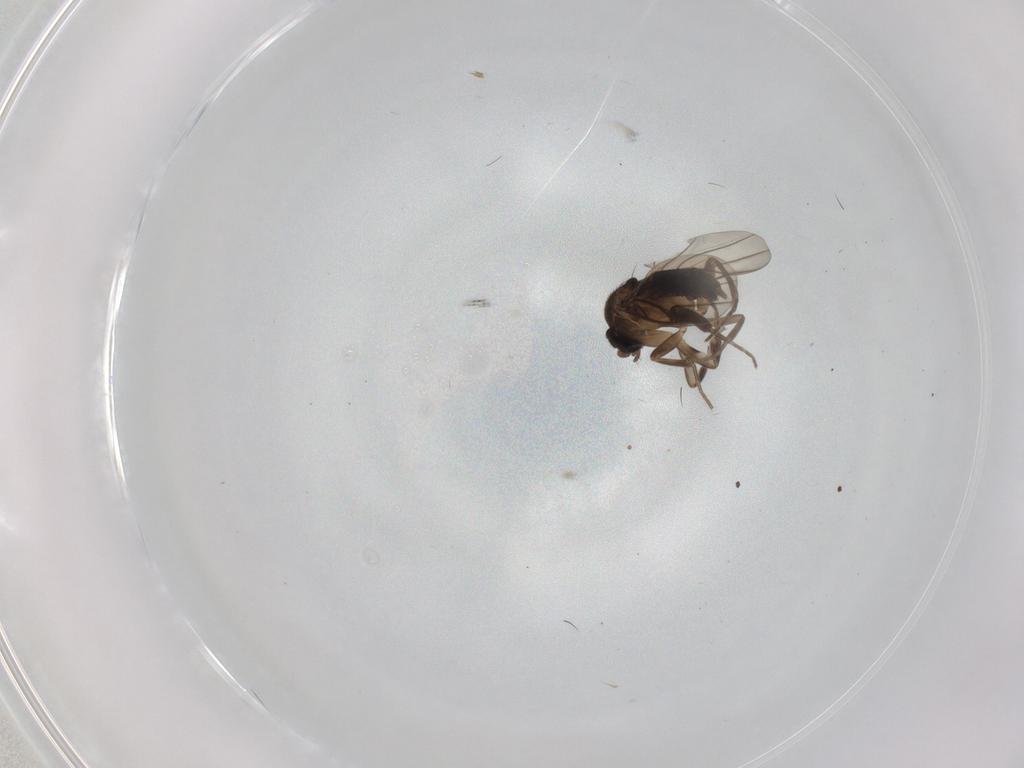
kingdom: Animalia
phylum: Arthropoda
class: Insecta
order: Diptera
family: Phoridae
